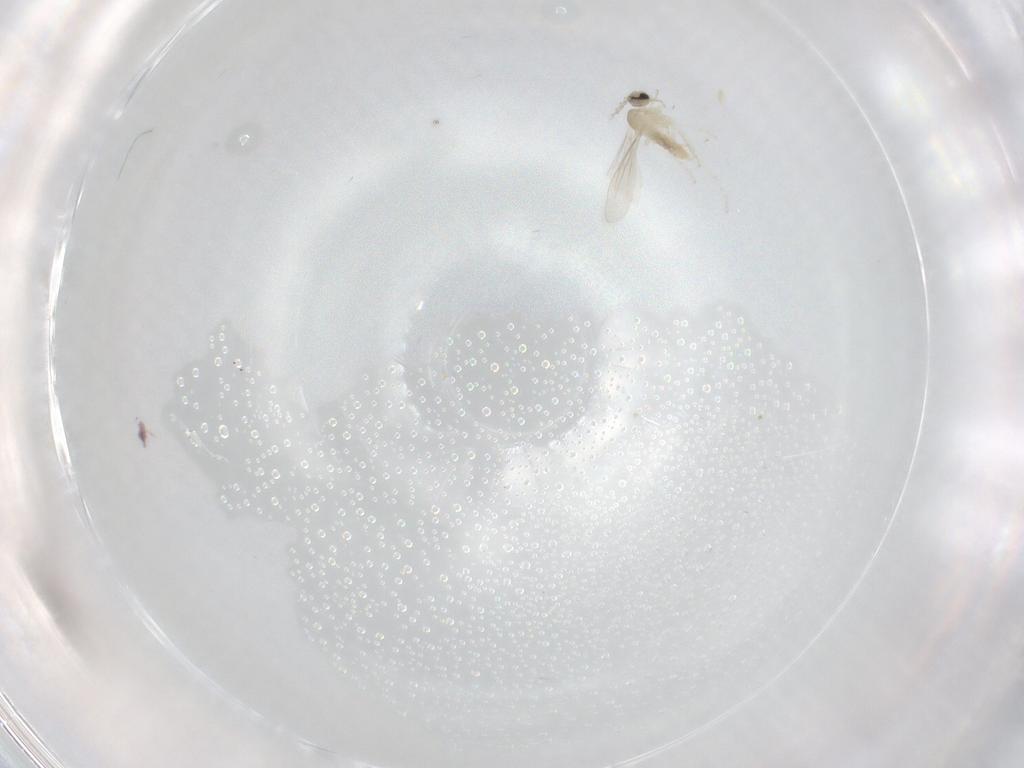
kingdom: Animalia
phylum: Arthropoda
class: Insecta
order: Diptera
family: Cecidomyiidae
